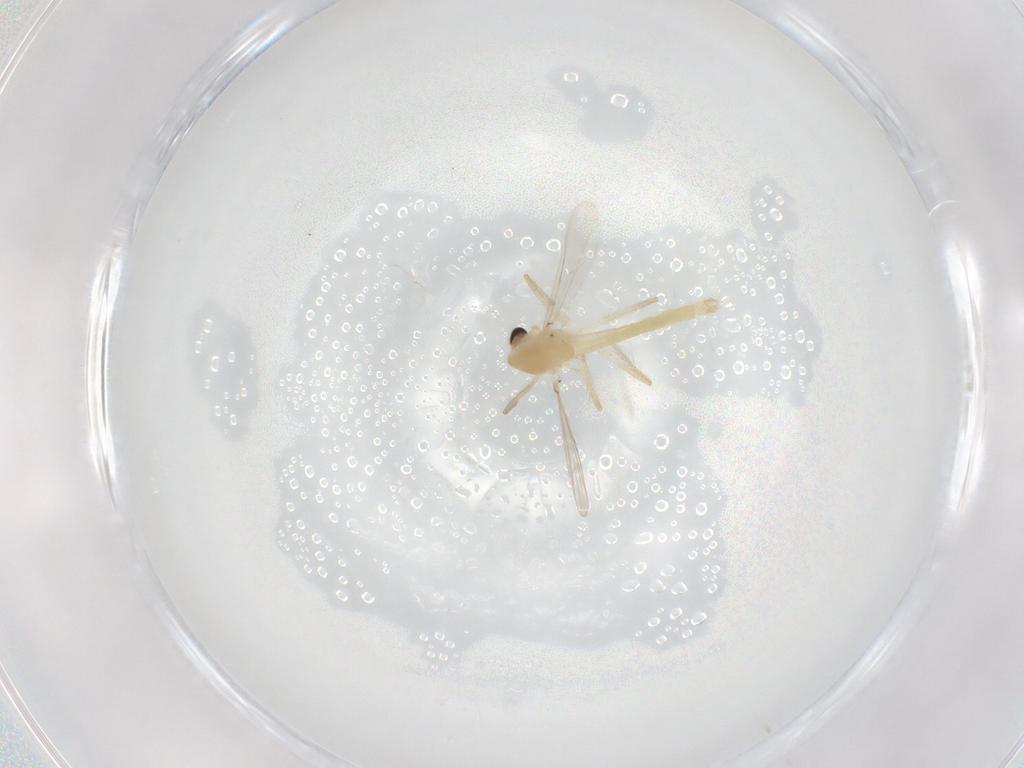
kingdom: Animalia
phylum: Arthropoda
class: Insecta
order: Diptera
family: Chironomidae
